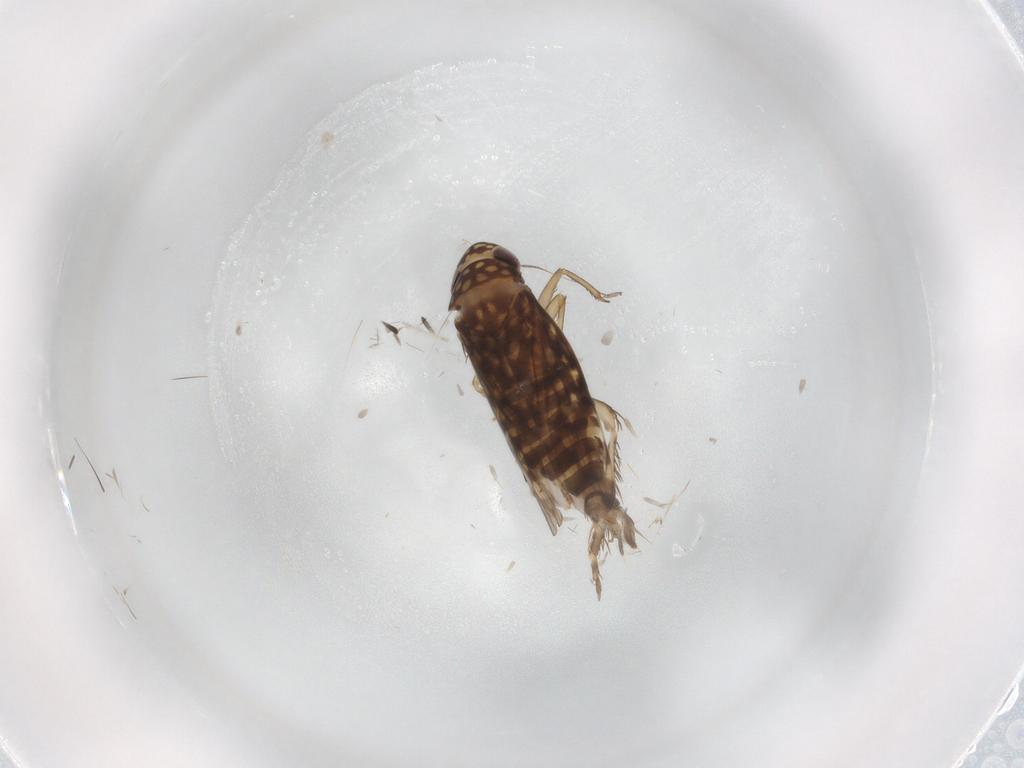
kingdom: Animalia
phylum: Arthropoda
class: Insecta
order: Hemiptera
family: Cicadellidae
